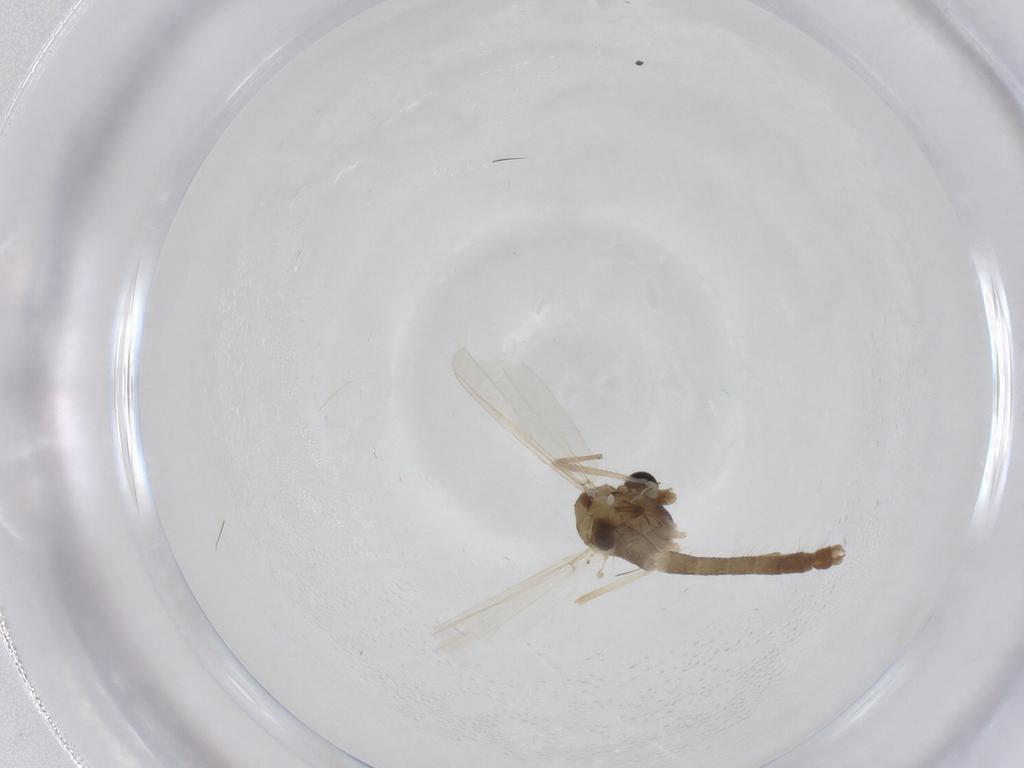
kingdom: Animalia
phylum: Arthropoda
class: Insecta
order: Diptera
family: Chironomidae
